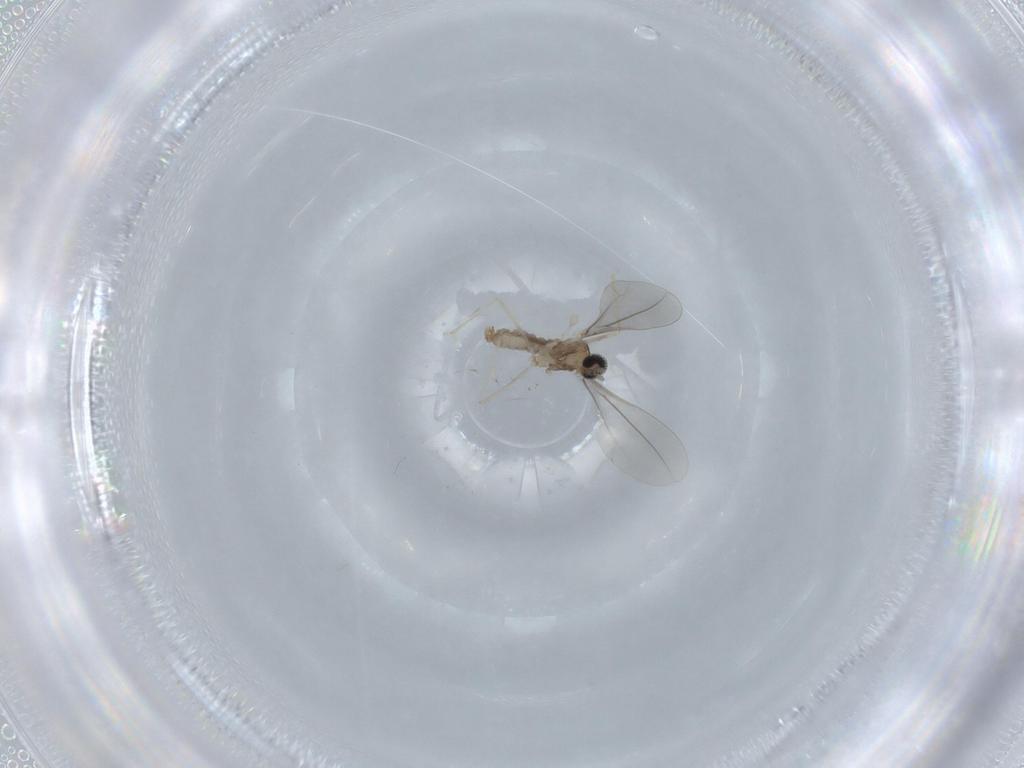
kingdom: Animalia
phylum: Arthropoda
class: Insecta
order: Diptera
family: Cecidomyiidae
